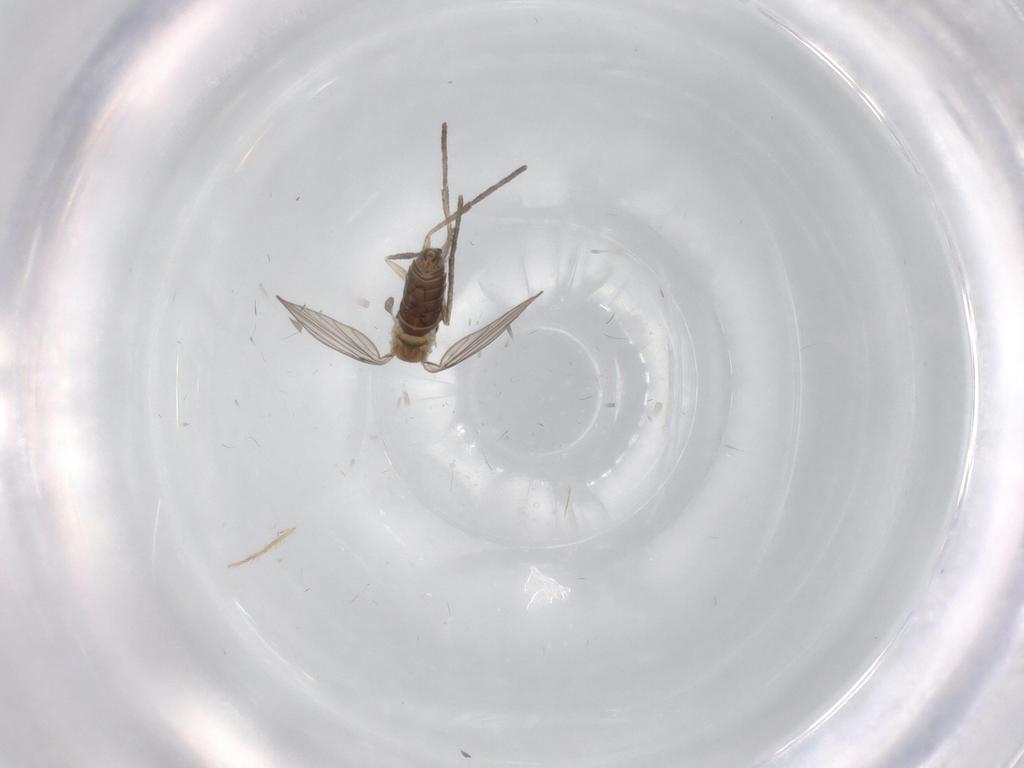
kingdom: Animalia
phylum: Arthropoda
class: Insecta
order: Diptera
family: Psychodidae
